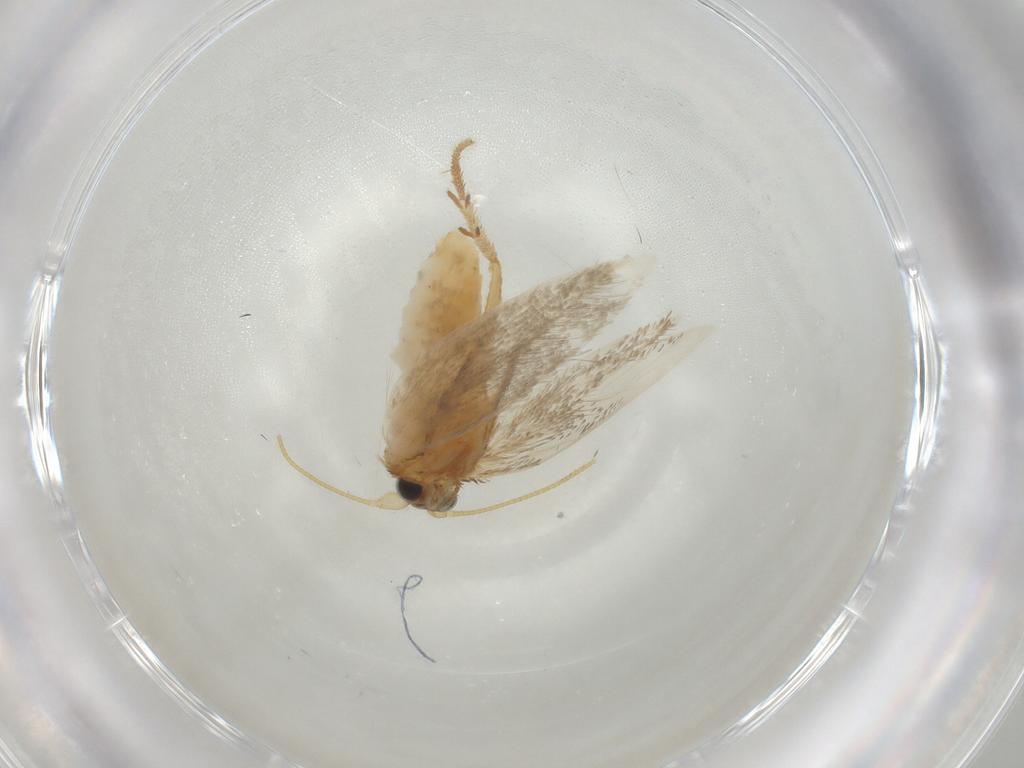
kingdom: Animalia
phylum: Arthropoda
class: Insecta
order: Lepidoptera
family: Nepticulidae
